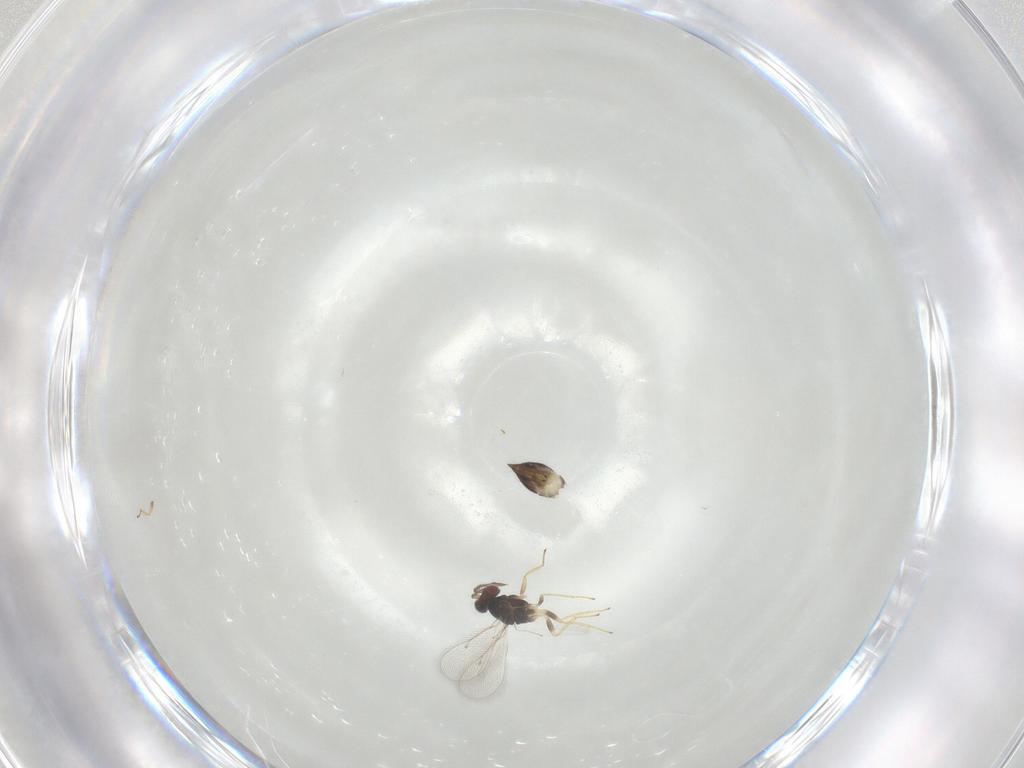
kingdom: Animalia
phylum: Arthropoda
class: Insecta
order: Hymenoptera
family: Eulophidae
